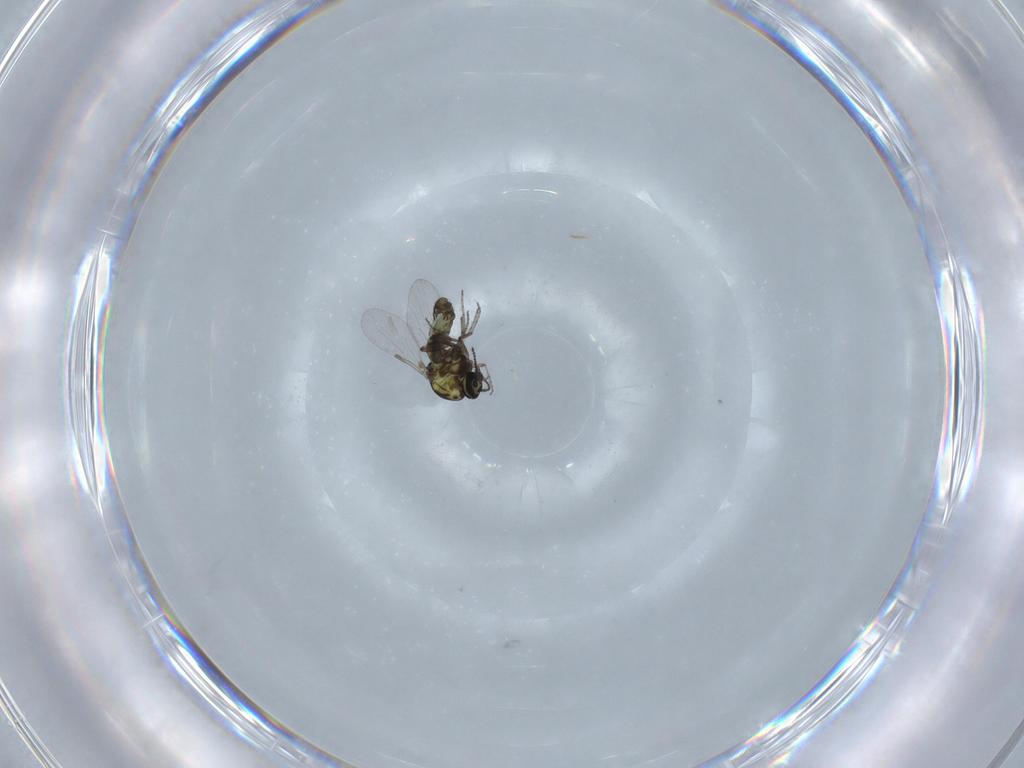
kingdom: Animalia
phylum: Arthropoda
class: Insecta
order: Diptera
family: Ceratopogonidae
